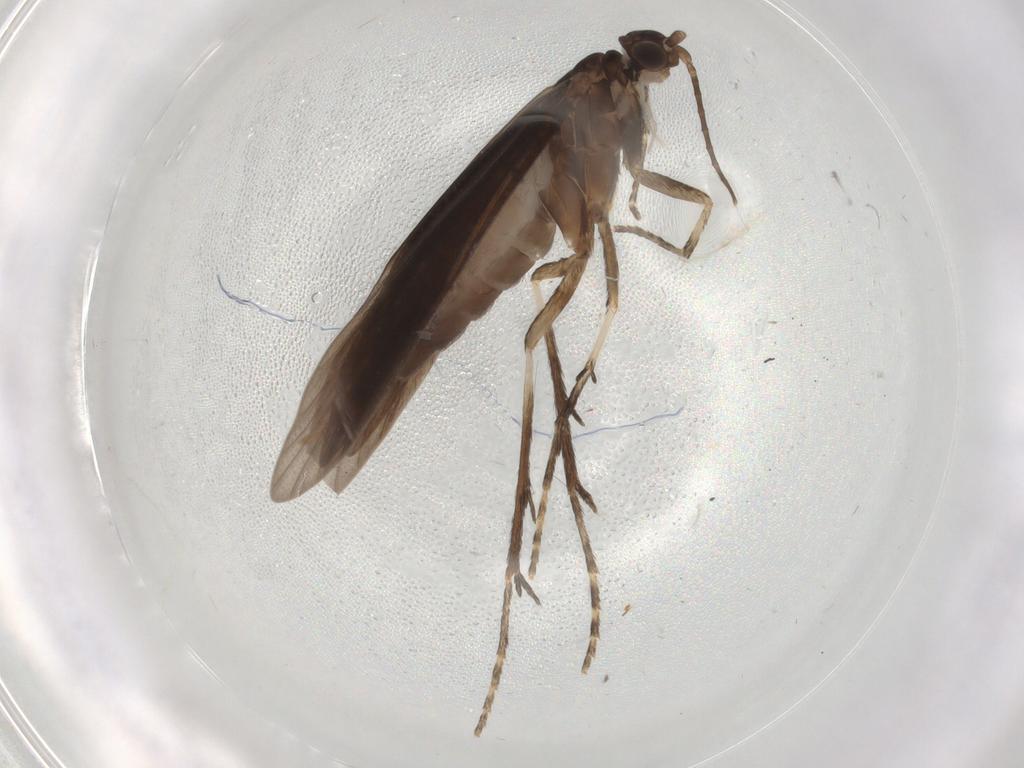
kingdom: Animalia
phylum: Arthropoda
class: Insecta
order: Trichoptera
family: Xiphocentronidae
